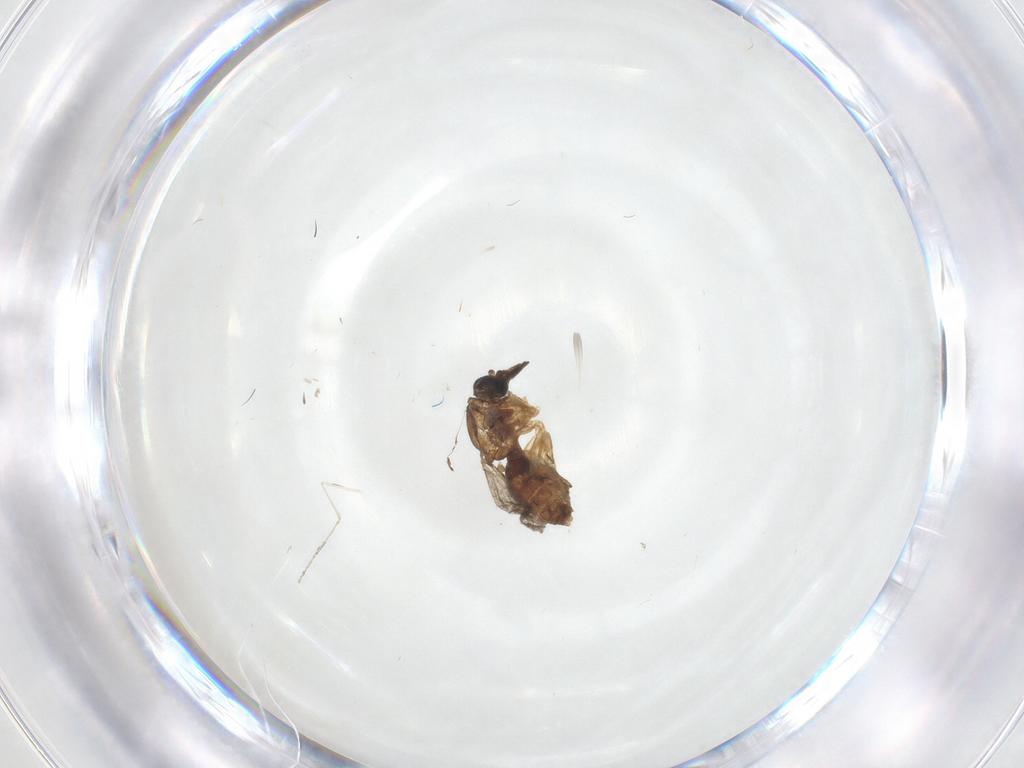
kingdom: Animalia
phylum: Arthropoda
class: Insecta
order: Diptera
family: Cecidomyiidae
